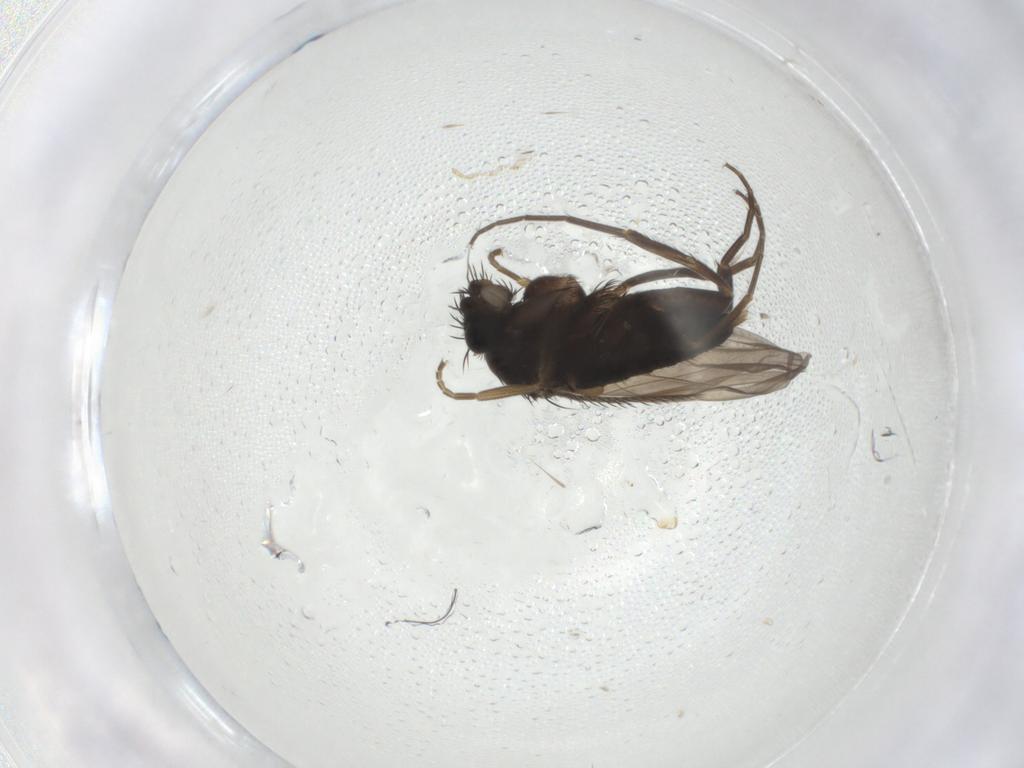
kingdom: Animalia
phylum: Arthropoda
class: Insecta
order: Diptera
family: Phoridae
